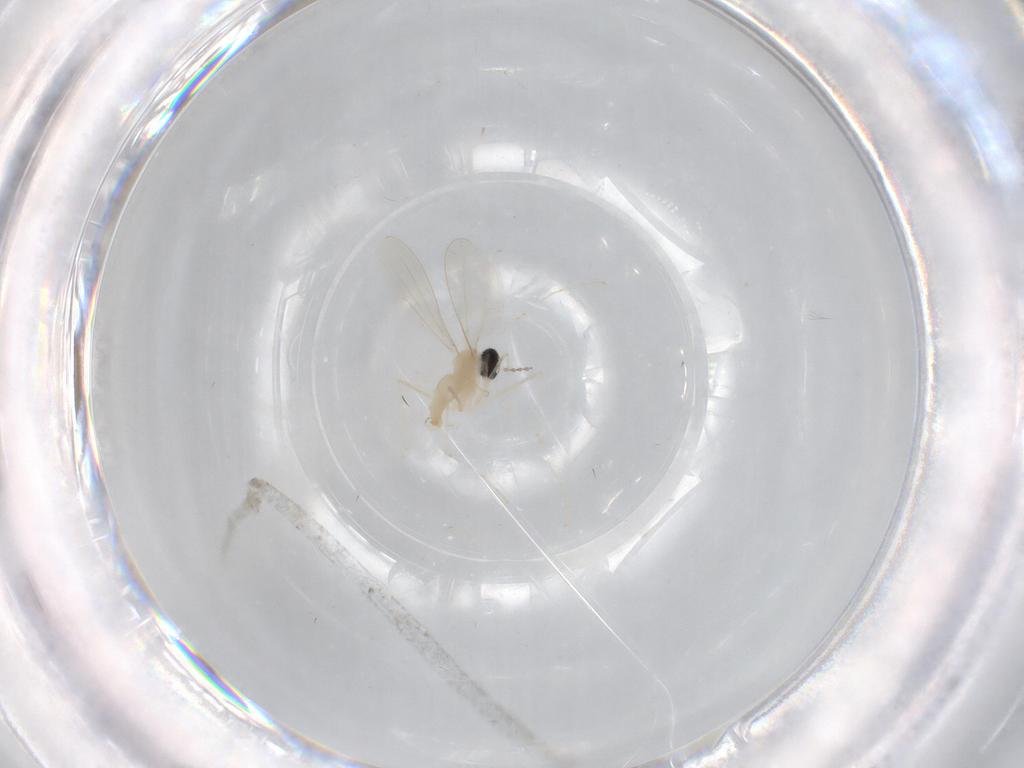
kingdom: Animalia
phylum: Arthropoda
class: Insecta
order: Diptera
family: Cecidomyiidae
